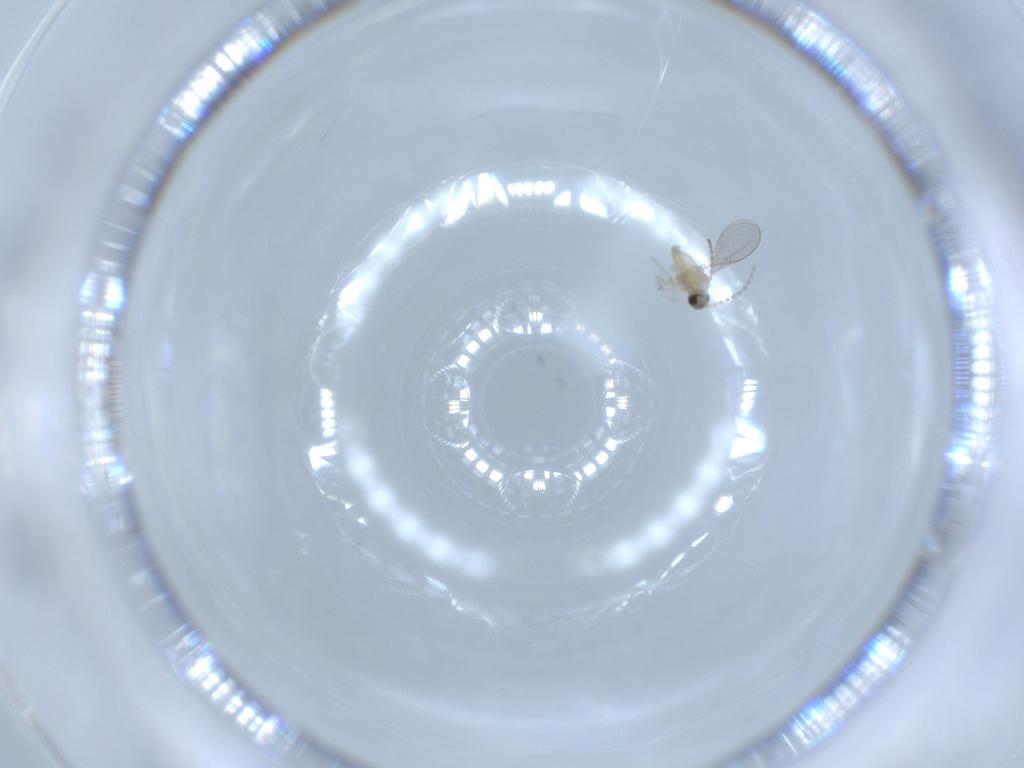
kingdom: Animalia
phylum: Arthropoda
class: Insecta
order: Diptera
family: Cecidomyiidae
